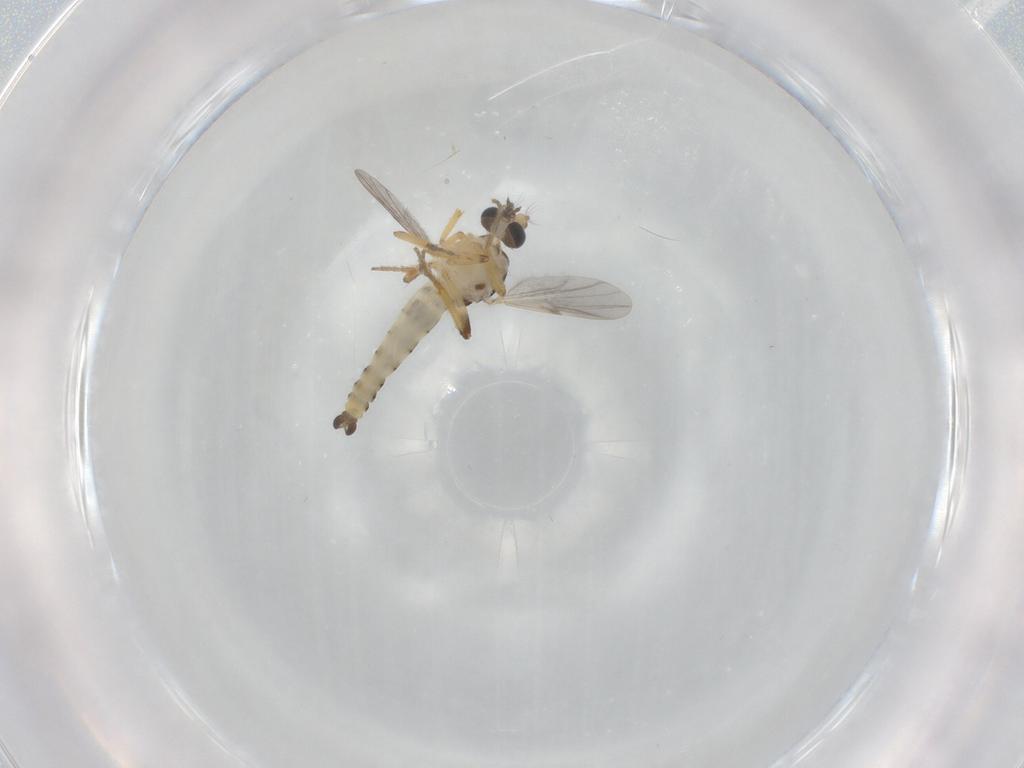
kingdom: Animalia
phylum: Arthropoda
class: Insecta
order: Diptera
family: Ceratopogonidae
